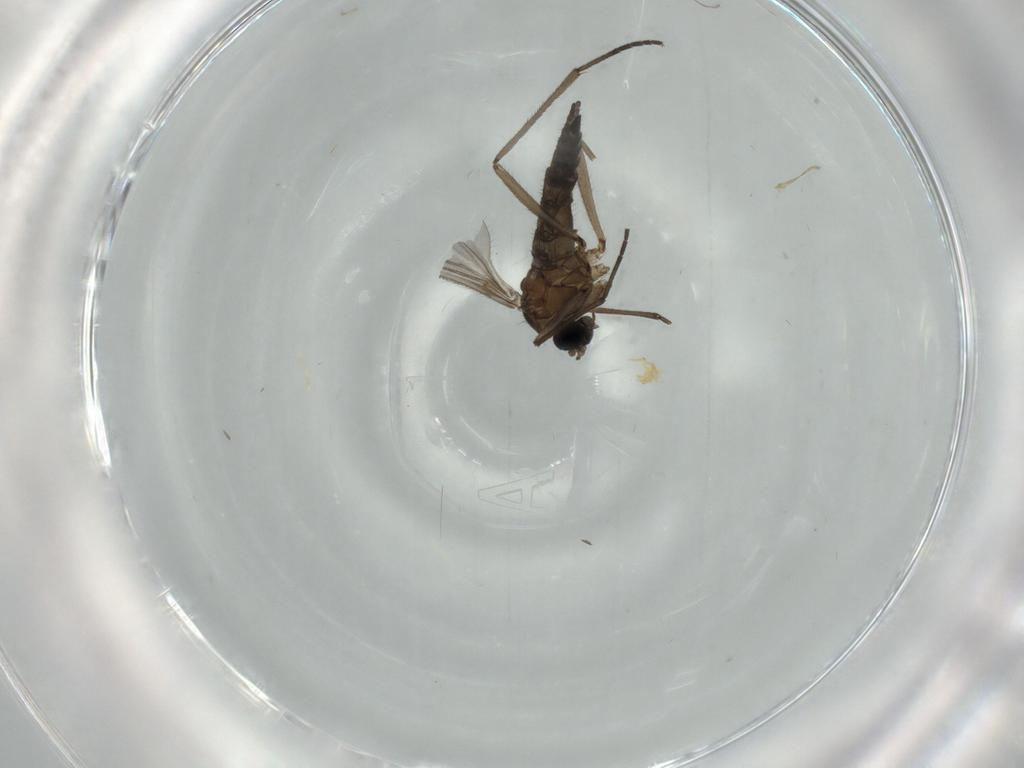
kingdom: Animalia
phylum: Arthropoda
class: Insecta
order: Diptera
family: Sciaridae
